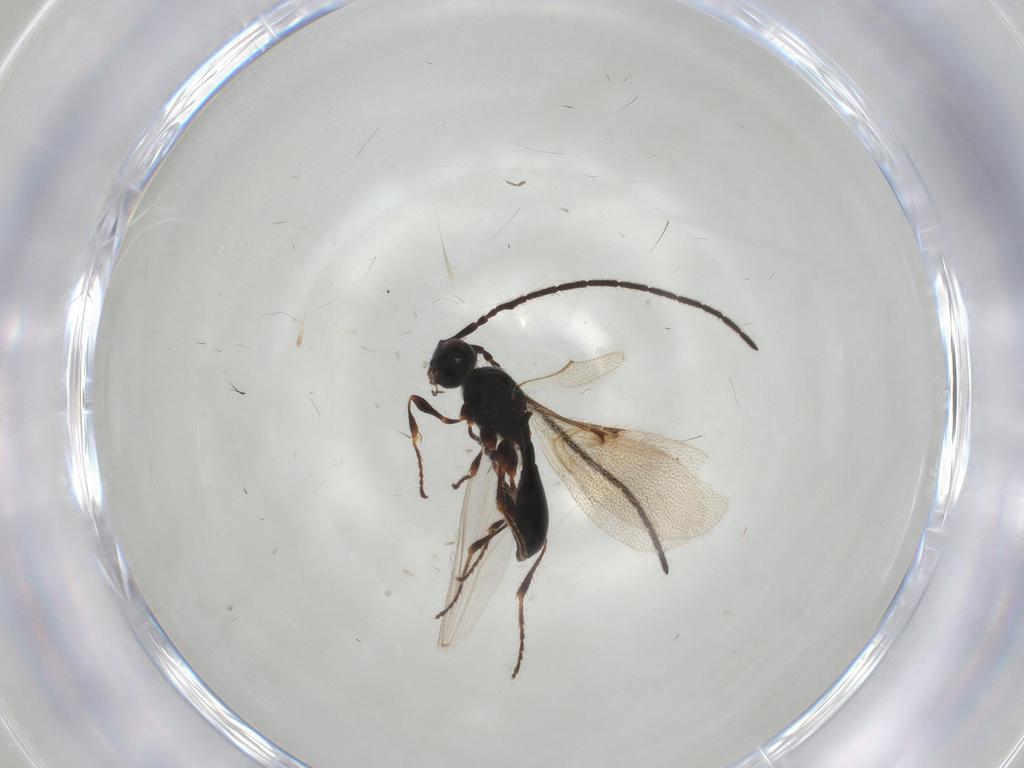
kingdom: Animalia
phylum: Arthropoda
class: Insecta
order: Hymenoptera
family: Diapriidae
